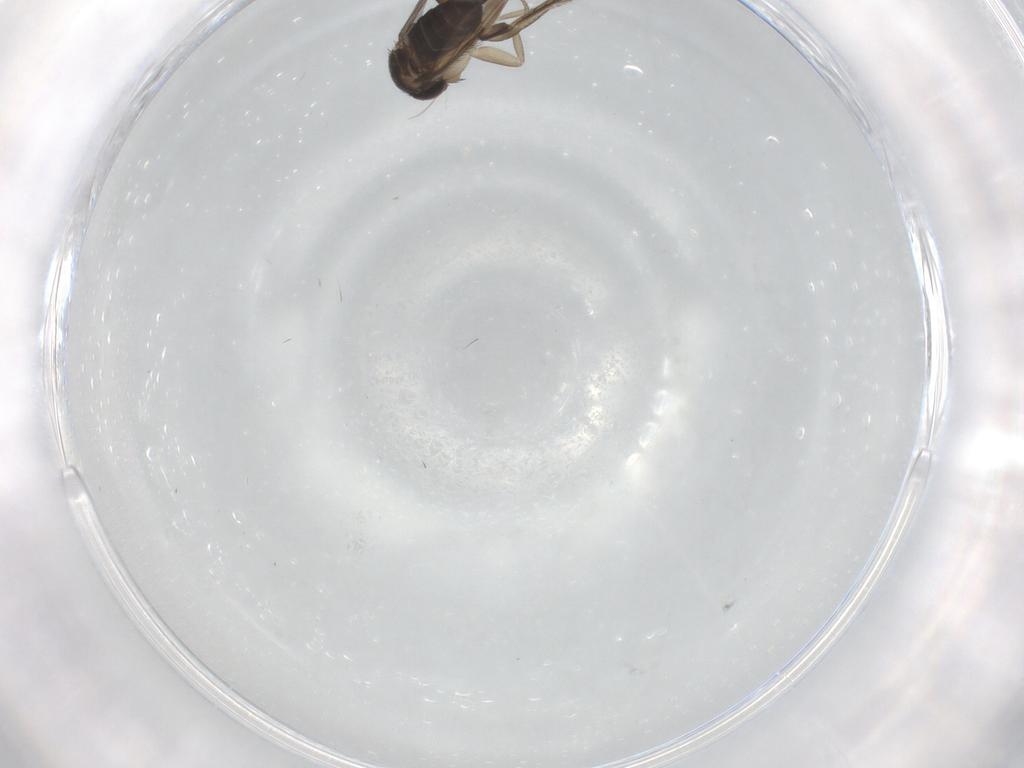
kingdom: Animalia
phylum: Arthropoda
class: Insecta
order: Diptera
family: Phoridae
